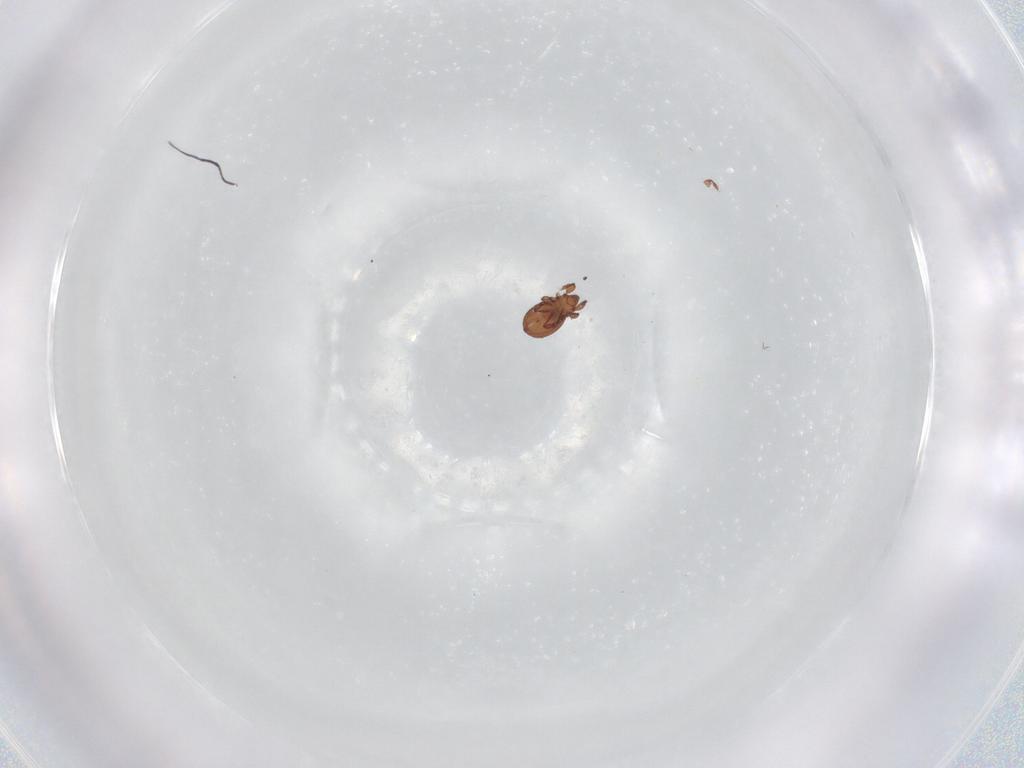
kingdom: Animalia
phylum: Arthropoda
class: Arachnida
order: Sarcoptiformes
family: Eremaeidae
